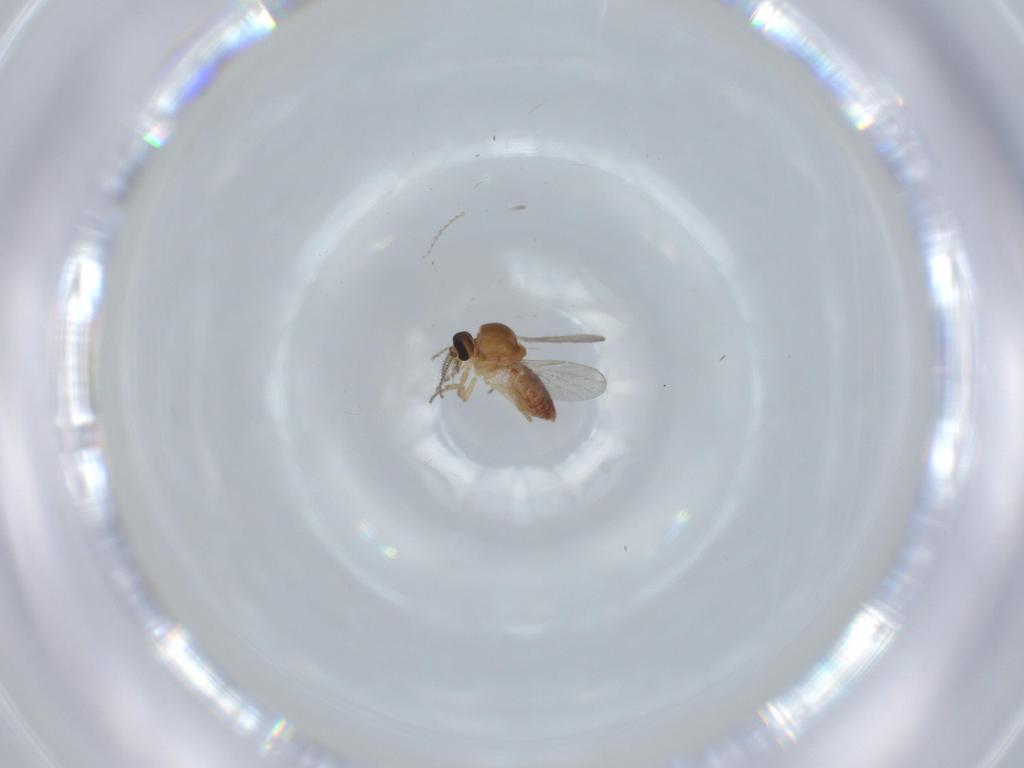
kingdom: Animalia
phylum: Arthropoda
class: Insecta
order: Diptera
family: Ceratopogonidae
